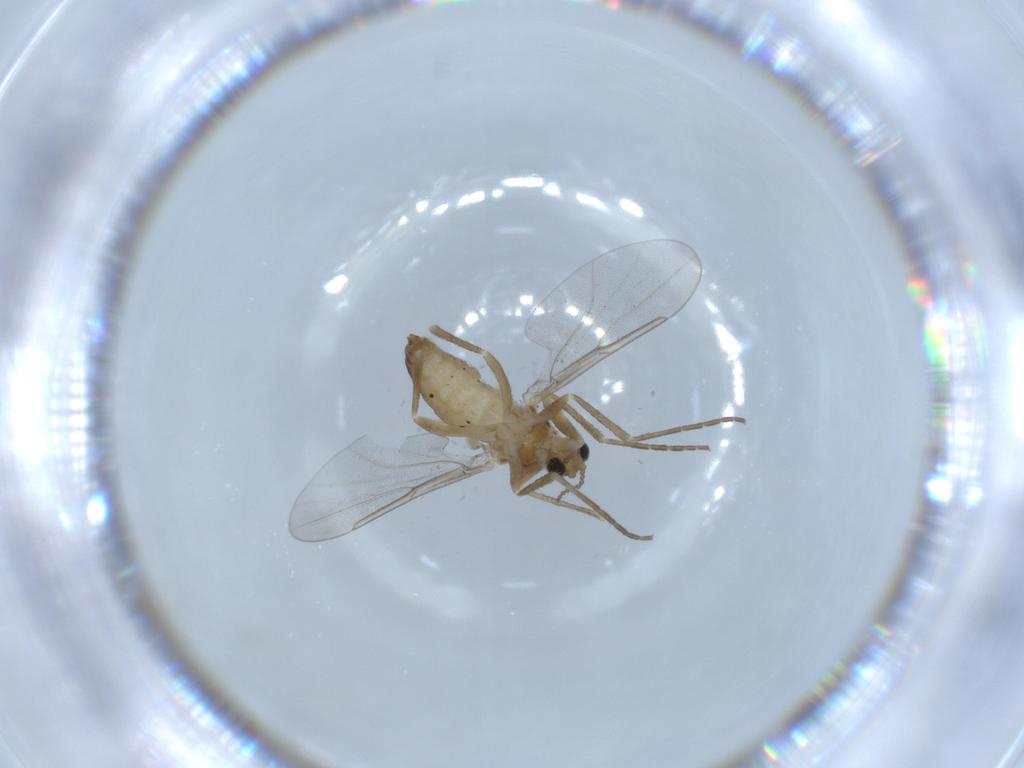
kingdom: Animalia
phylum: Arthropoda
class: Insecta
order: Diptera
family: Cecidomyiidae
